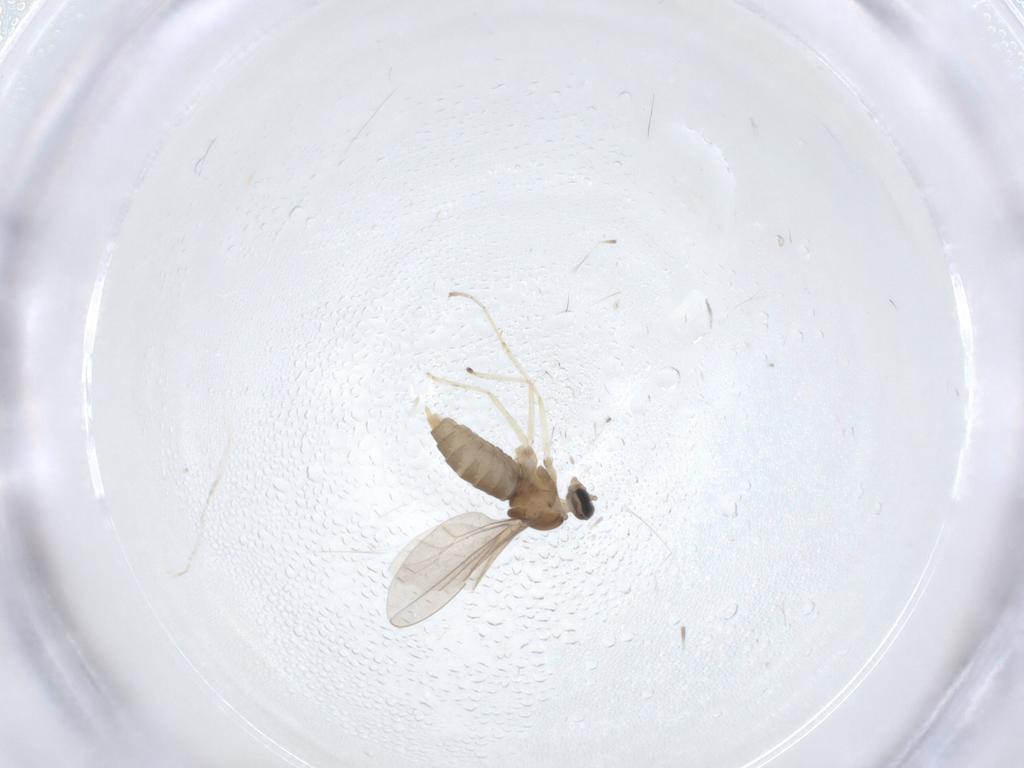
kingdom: Animalia
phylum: Arthropoda
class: Insecta
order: Diptera
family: Cecidomyiidae
